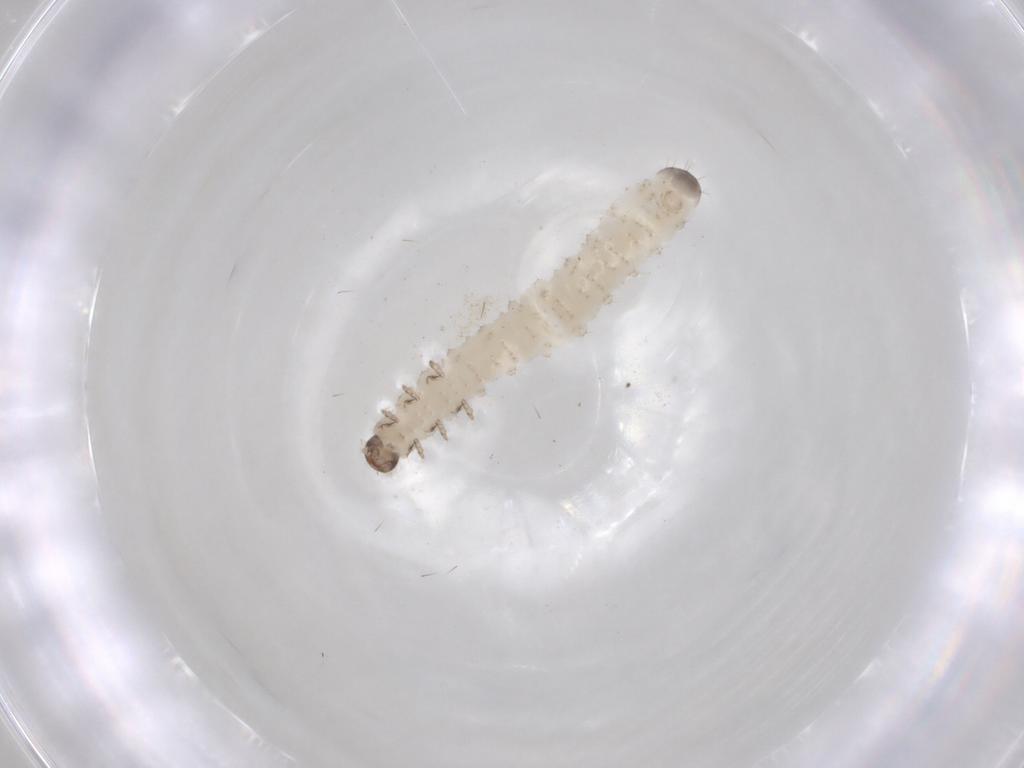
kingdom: Animalia
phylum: Arthropoda
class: Insecta
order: Coleoptera
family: Chrysomelidae
